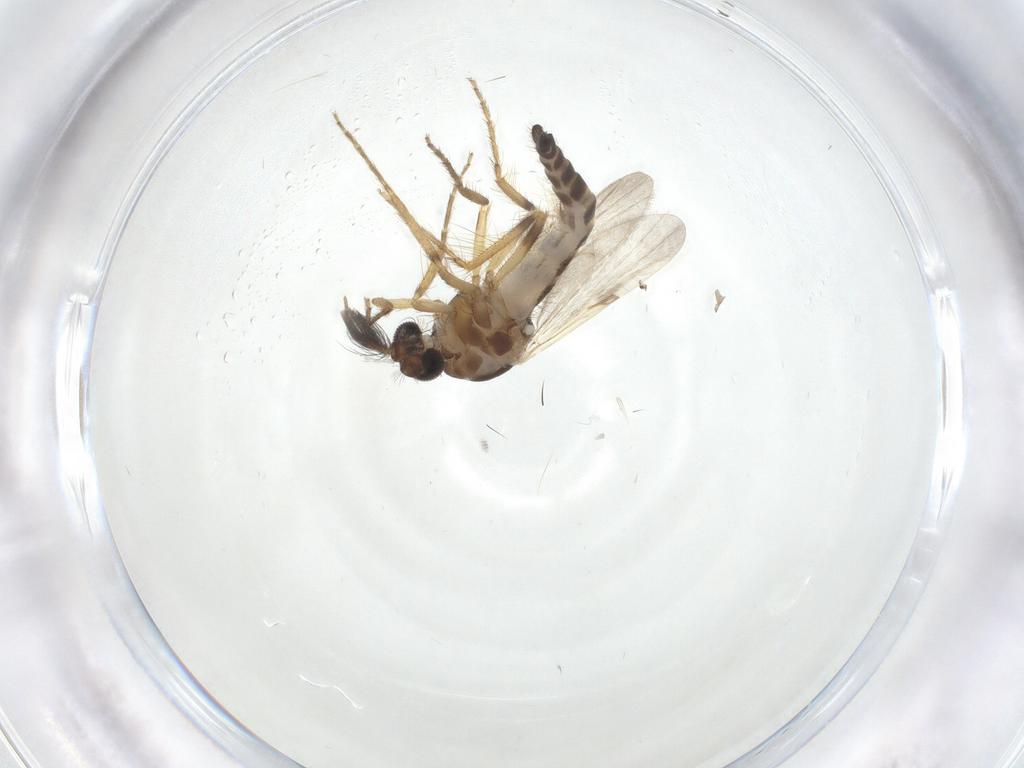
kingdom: Animalia
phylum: Arthropoda
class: Insecta
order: Diptera
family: Ceratopogonidae
